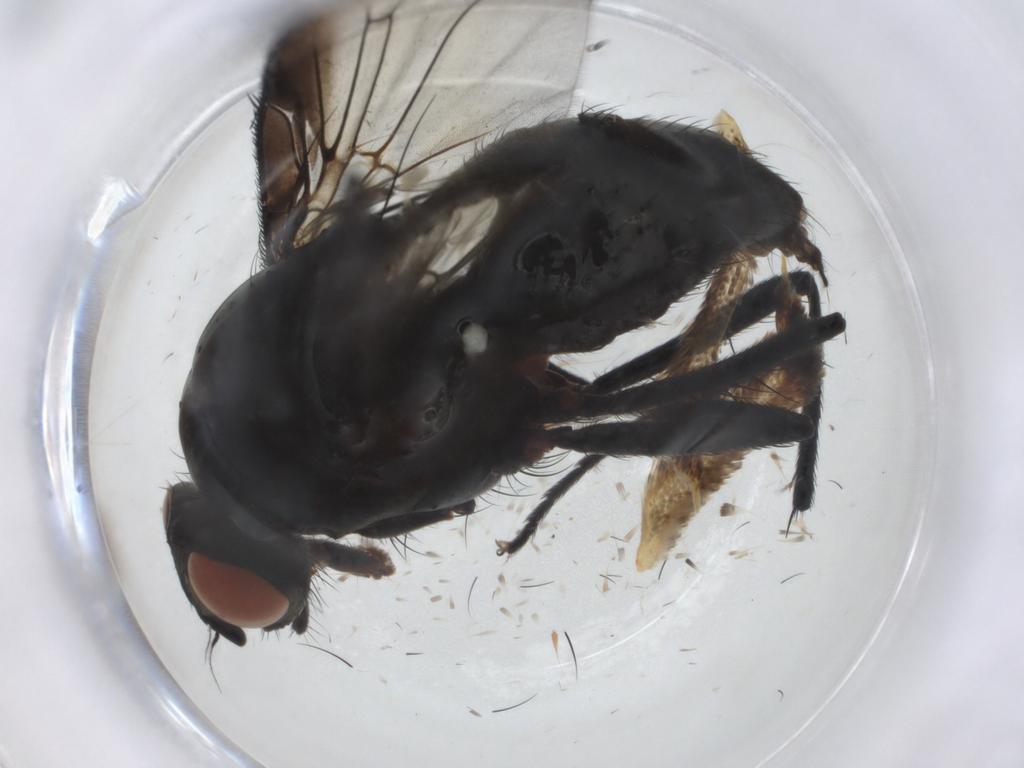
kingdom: Animalia
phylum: Arthropoda
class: Insecta
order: Diptera
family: Anthomyiidae
